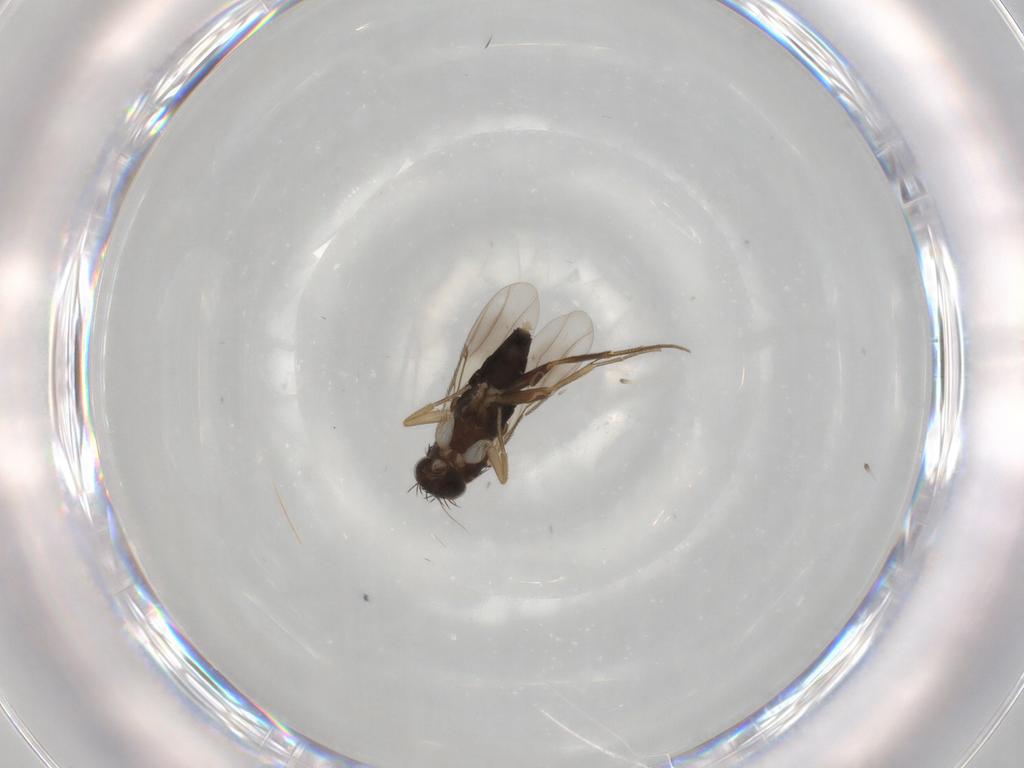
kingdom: Animalia
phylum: Arthropoda
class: Insecta
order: Diptera
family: Phoridae
